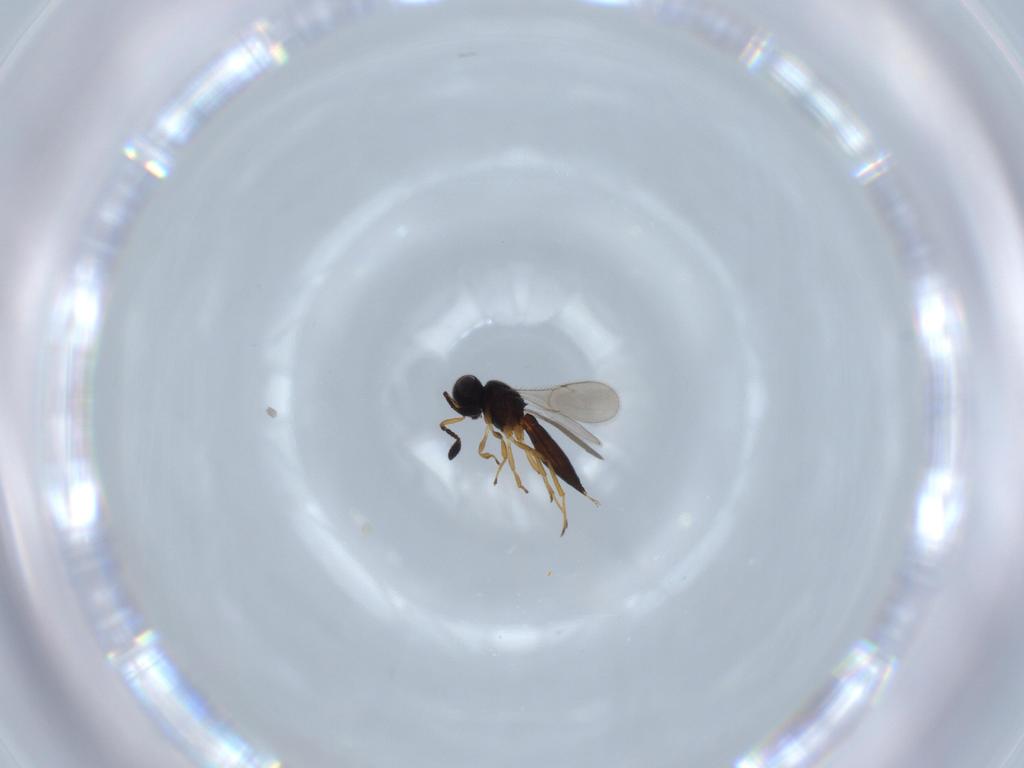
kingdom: Animalia
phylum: Arthropoda
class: Insecta
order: Hymenoptera
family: Scelionidae
